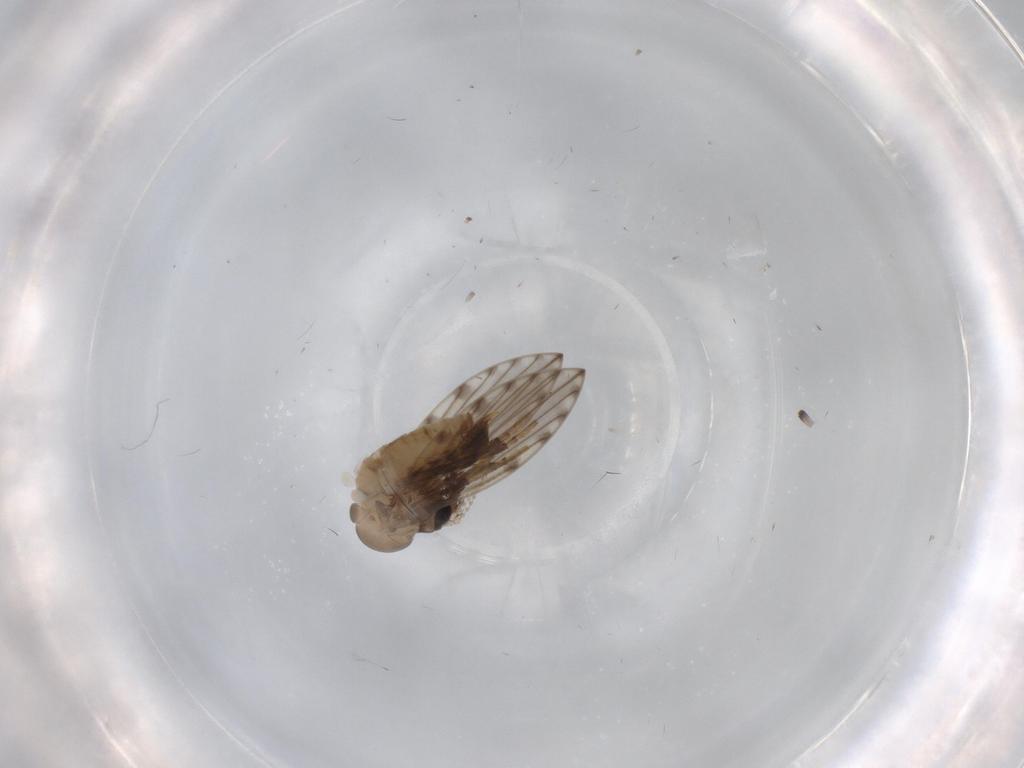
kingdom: Animalia
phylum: Arthropoda
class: Insecta
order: Diptera
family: Psychodidae
